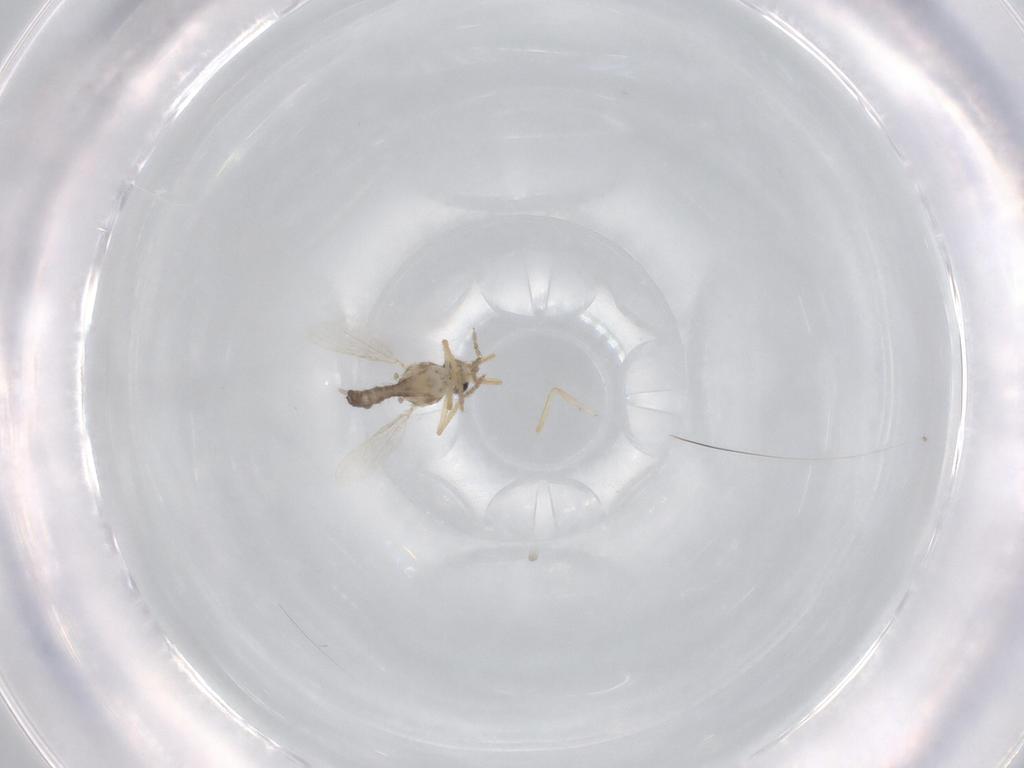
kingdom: Animalia
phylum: Arthropoda
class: Insecta
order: Diptera
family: Ceratopogonidae
